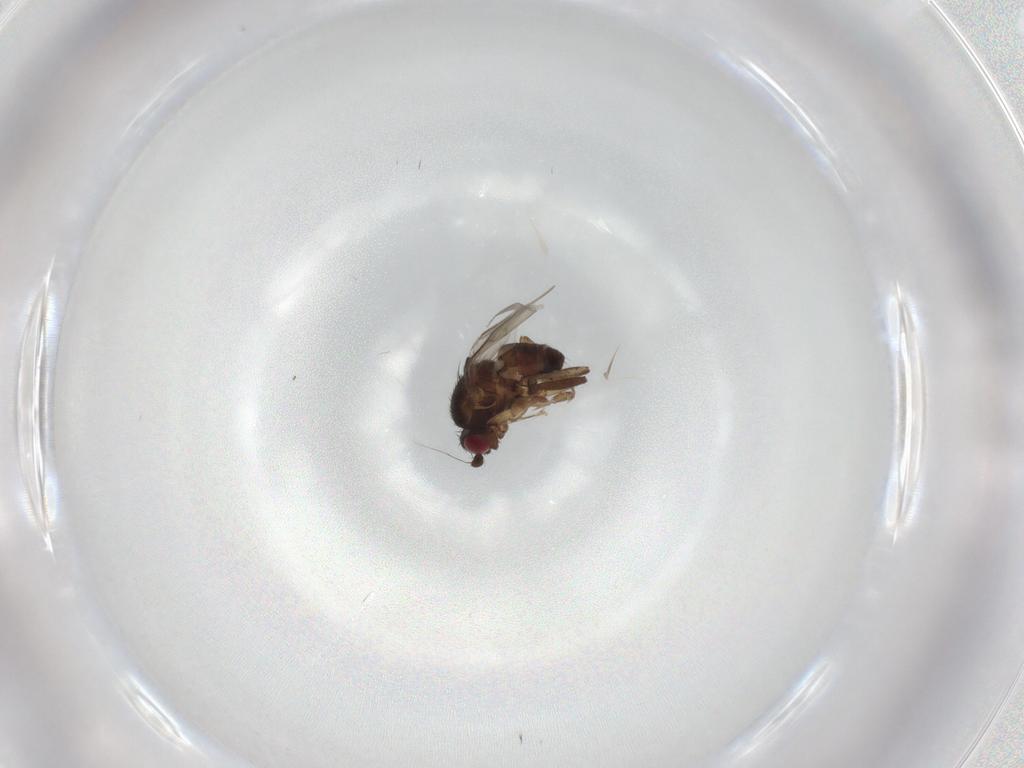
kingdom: Animalia
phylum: Arthropoda
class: Insecta
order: Diptera
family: Sphaeroceridae
